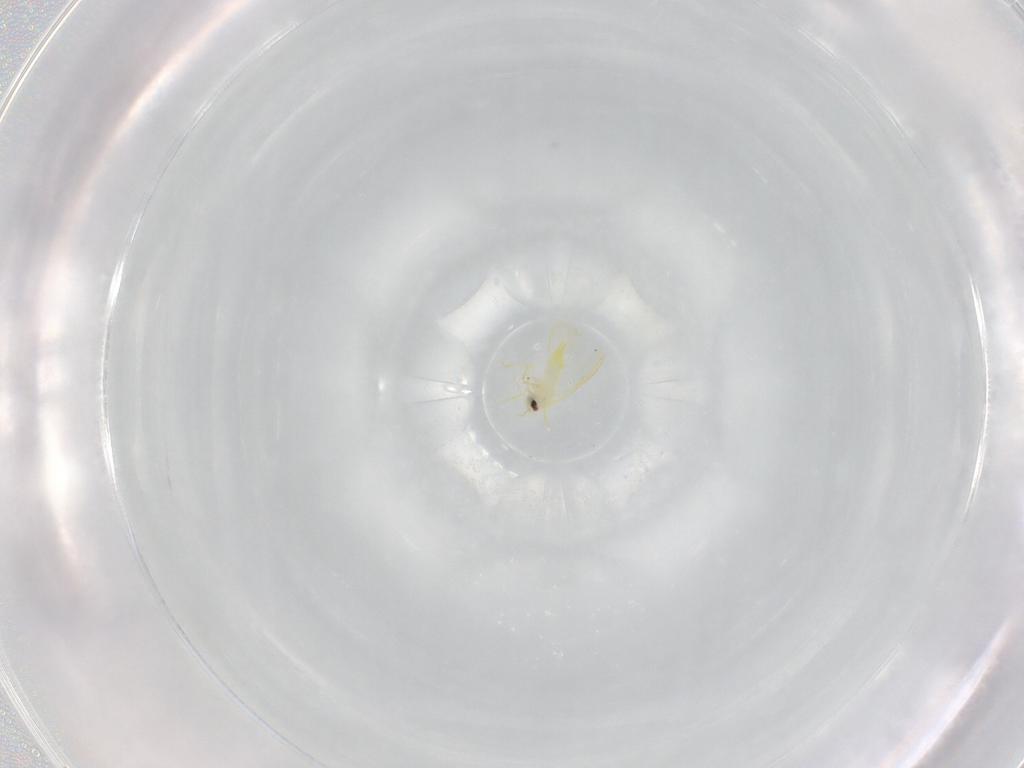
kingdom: Animalia
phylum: Arthropoda
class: Insecta
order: Hemiptera
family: Aleyrodidae
